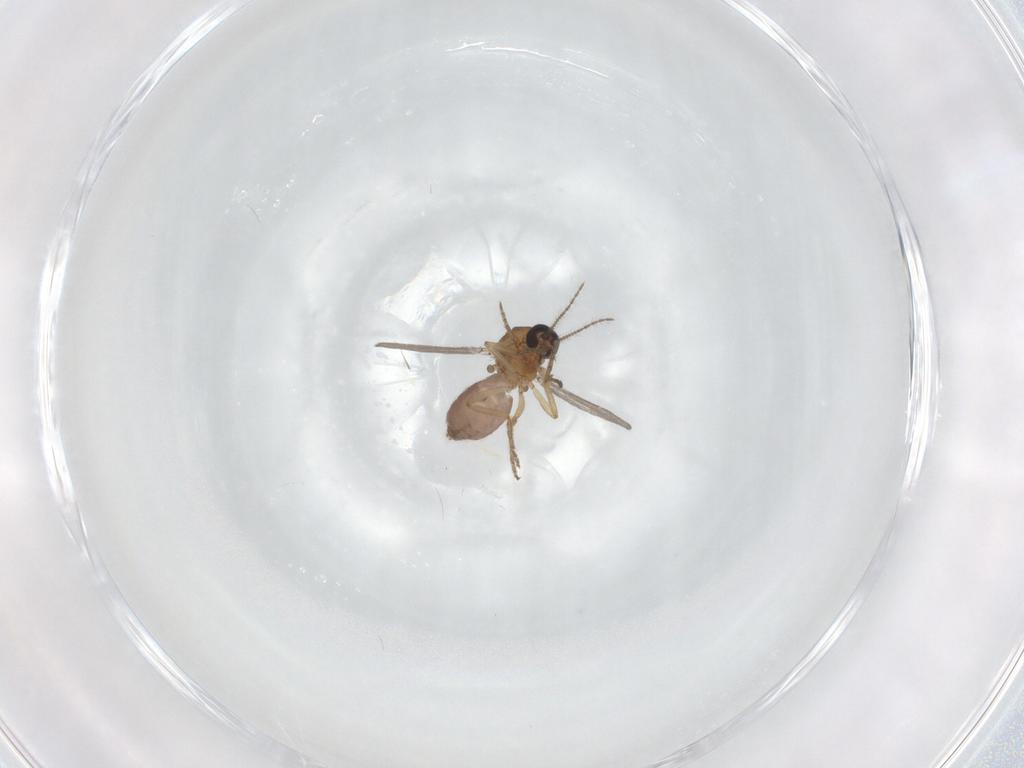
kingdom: Animalia
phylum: Arthropoda
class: Insecta
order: Diptera
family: Ceratopogonidae
